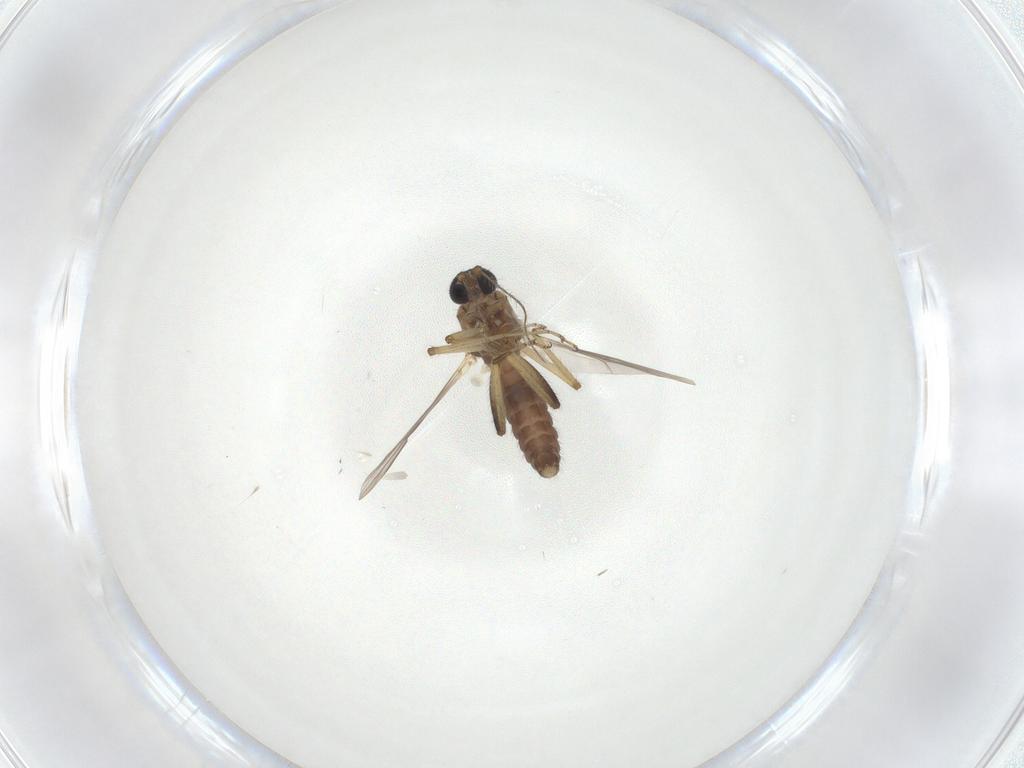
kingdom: Animalia
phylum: Arthropoda
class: Insecta
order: Diptera
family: Ceratopogonidae
